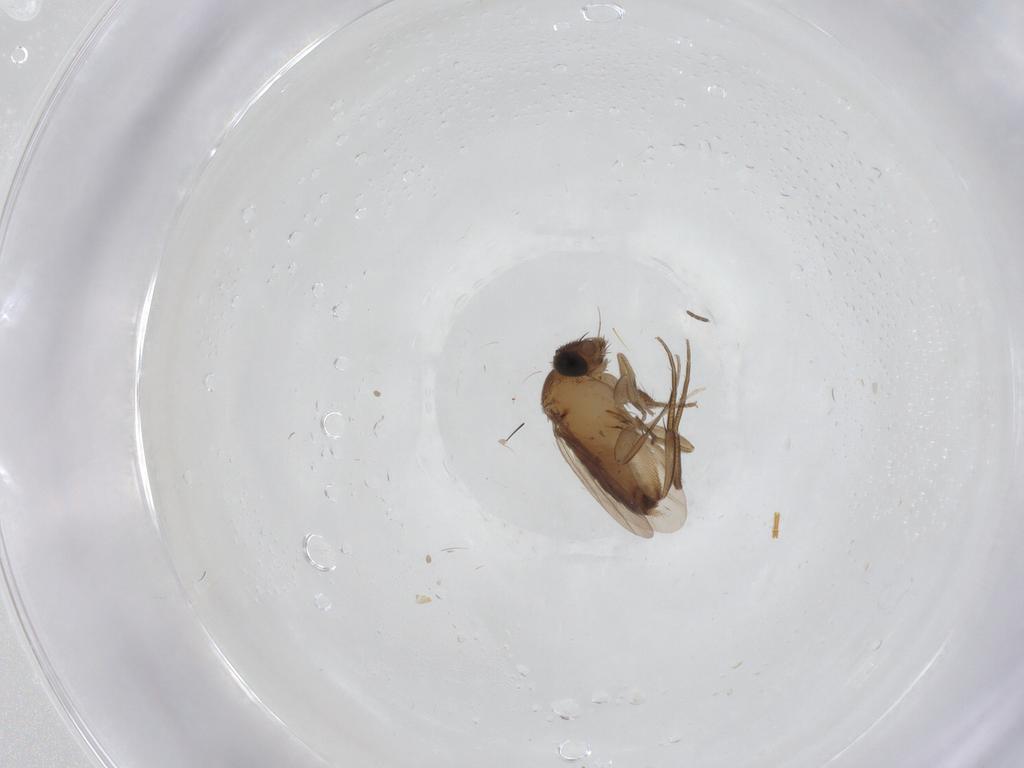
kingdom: Animalia
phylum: Arthropoda
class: Insecta
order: Diptera
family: Phoridae
